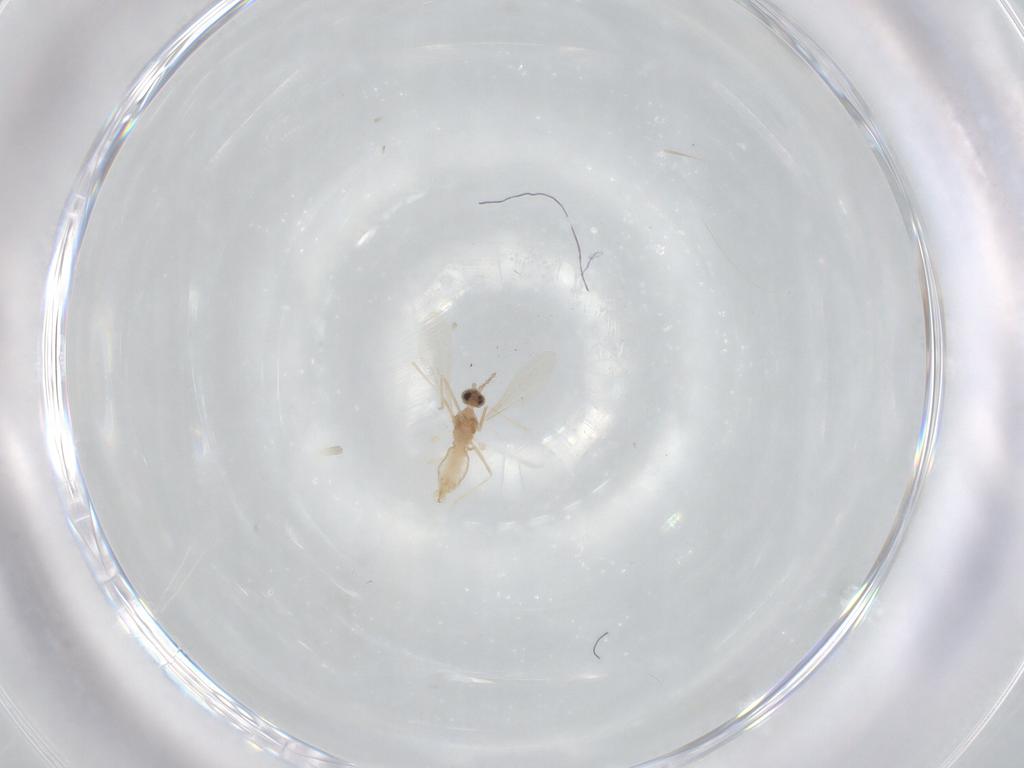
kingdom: Animalia
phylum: Arthropoda
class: Insecta
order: Diptera
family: Cecidomyiidae
